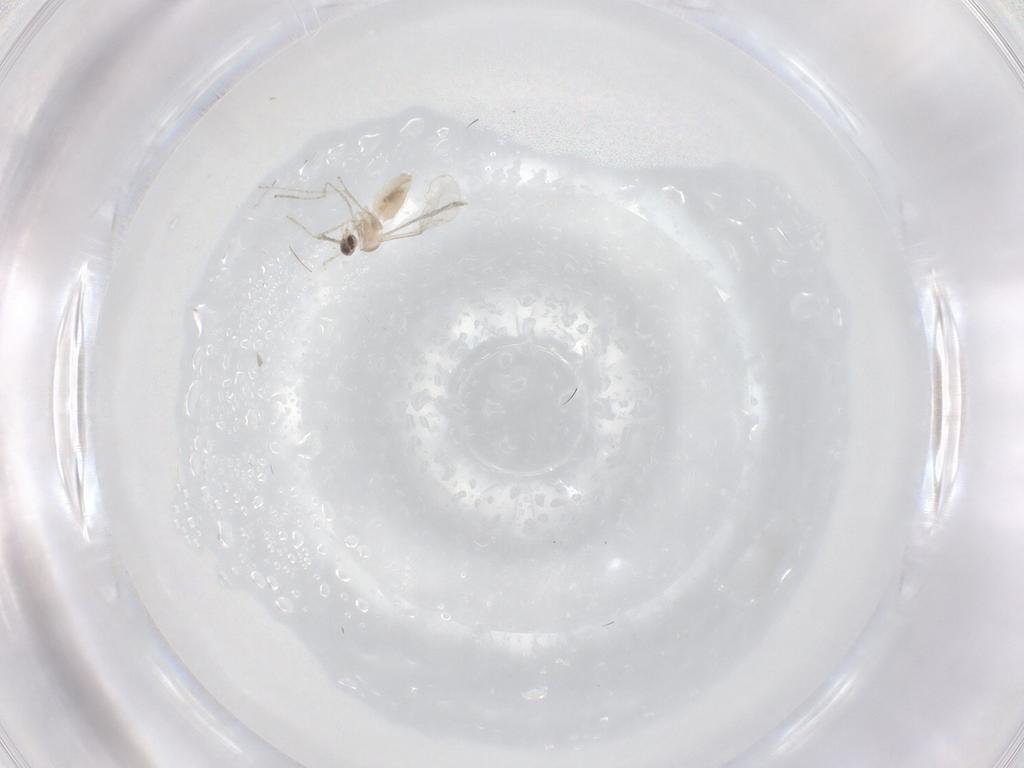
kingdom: Animalia
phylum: Arthropoda
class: Insecta
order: Diptera
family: Cecidomyiidae
